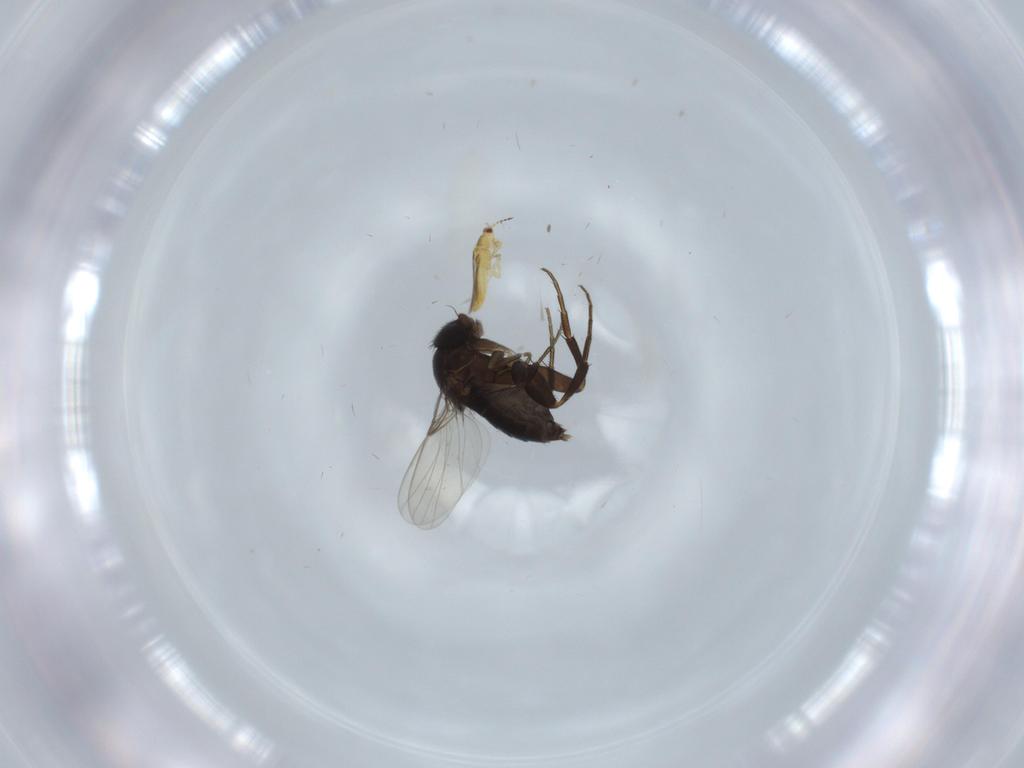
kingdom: Animalia
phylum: Arthropoda
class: Insecta
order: Diptera
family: Phoridae
